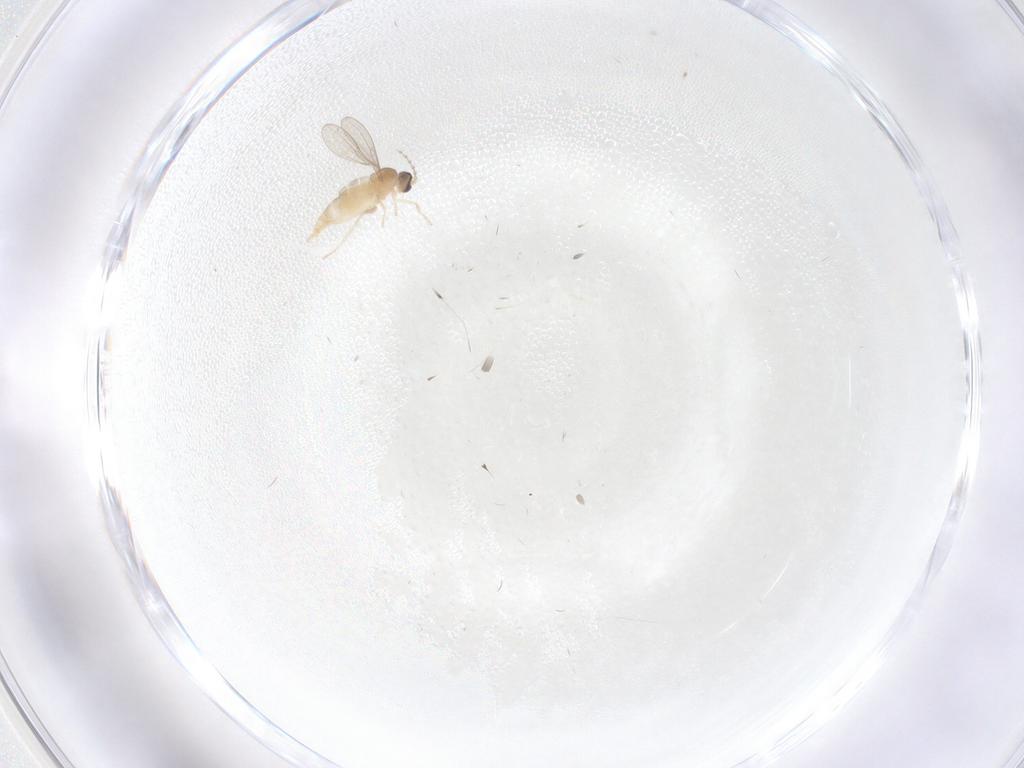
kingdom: Animalia
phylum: Arthropoda
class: Insecta
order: Diptera
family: Cecidomyiidae
